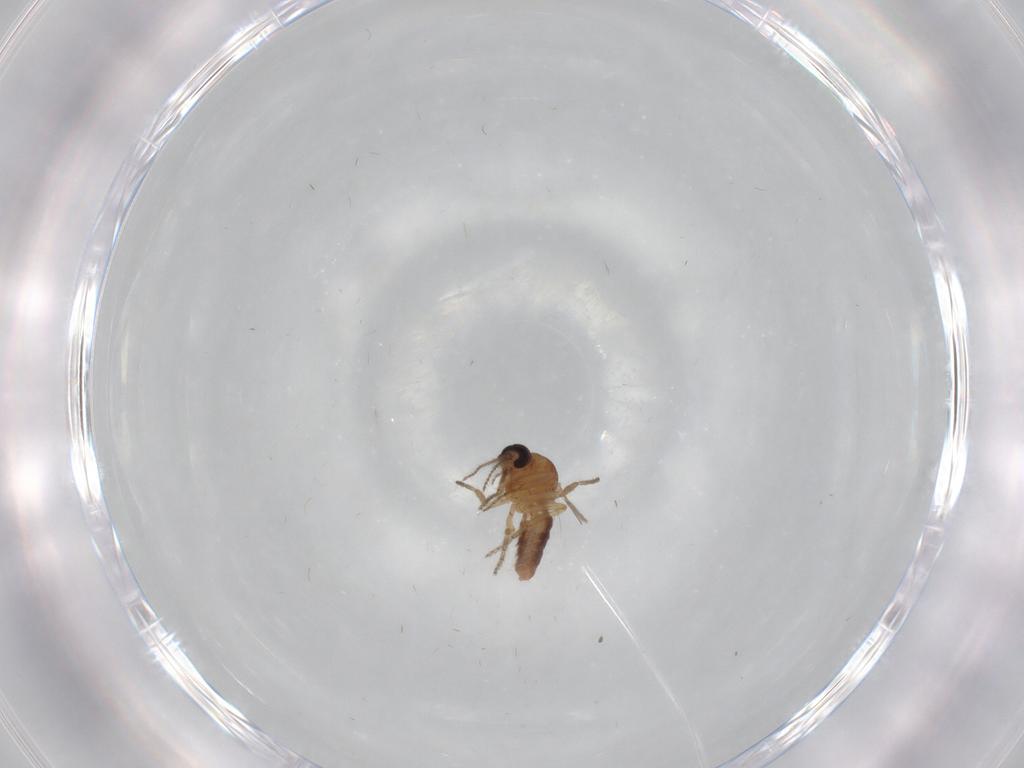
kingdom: Animalia
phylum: Arthropoda
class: Insecta
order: Diptera
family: Ceratopogonidae
